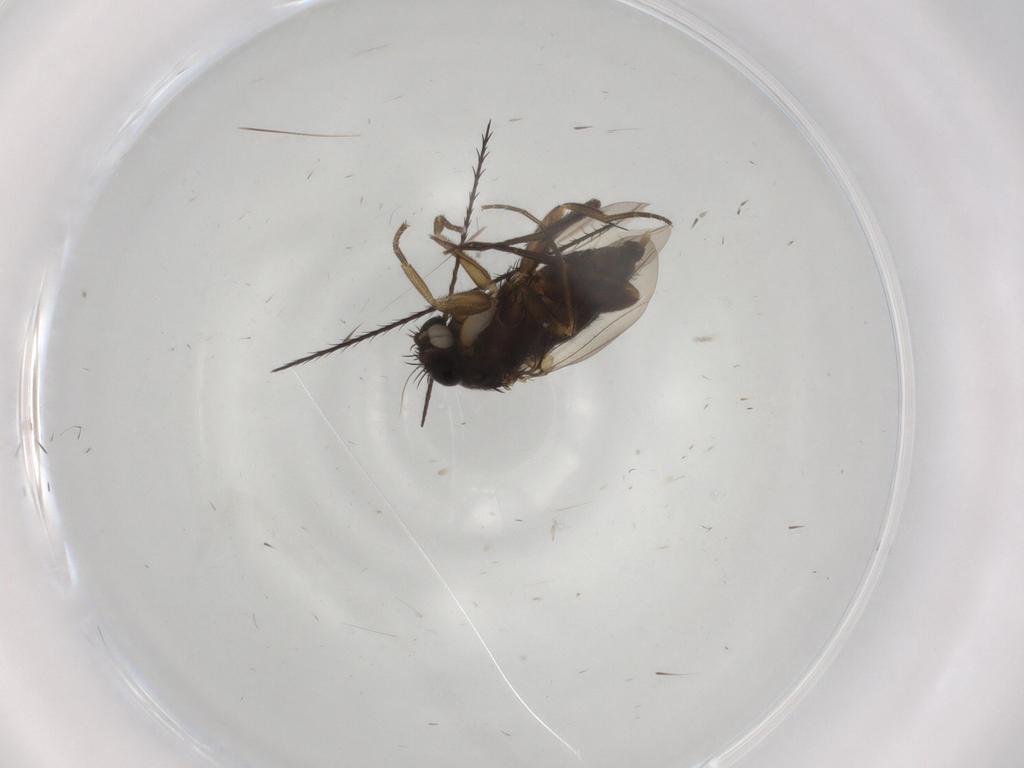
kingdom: Animalia
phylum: Arthropoda
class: Insecta
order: Diptera
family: Phoridae
